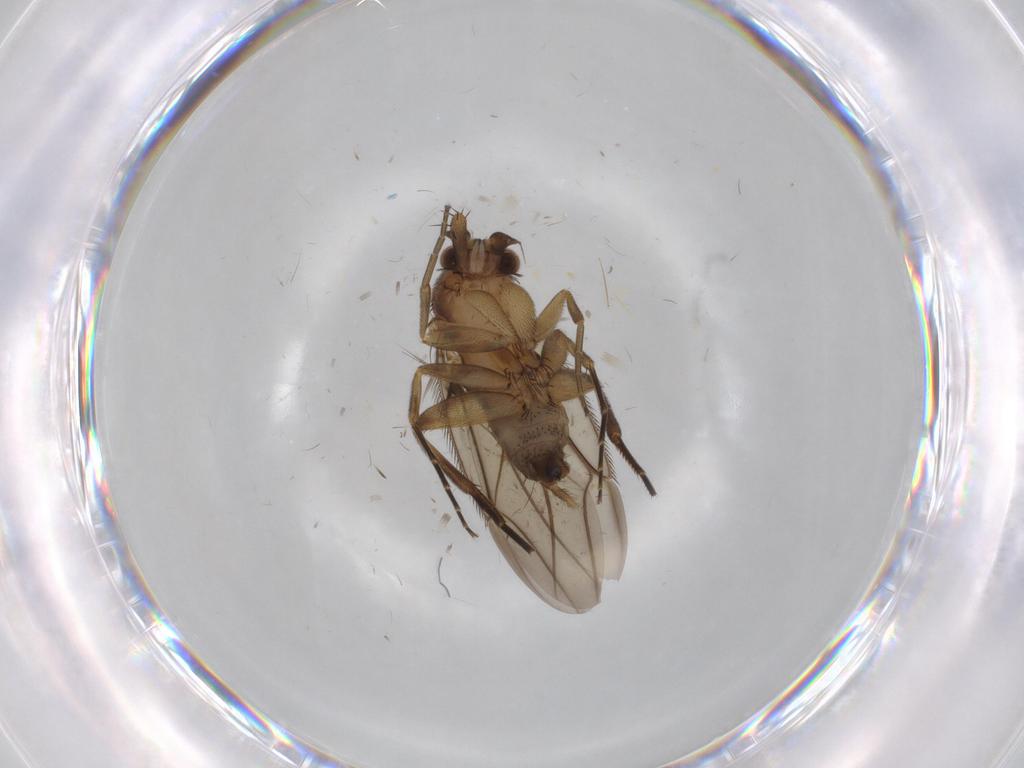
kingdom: Animalia
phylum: Arthropoda
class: Insecta
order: Diptera
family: Phoridae
